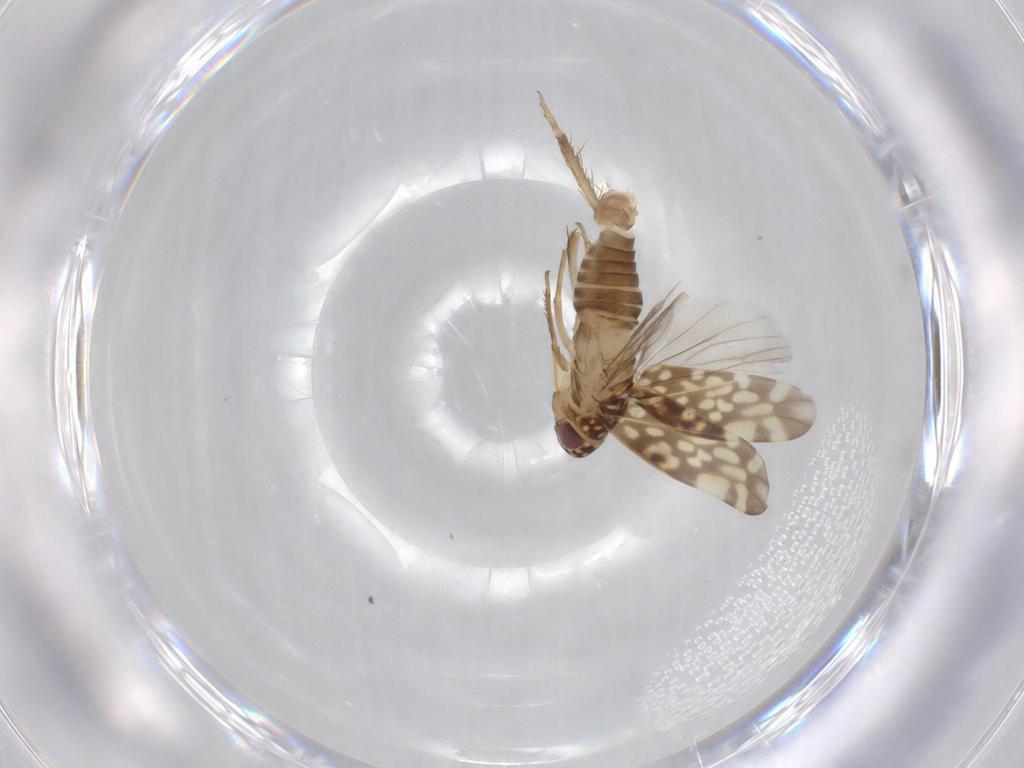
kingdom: Animalia
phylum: Arthropoda
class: Insecta
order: Hemiptera
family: Cicadellidae
